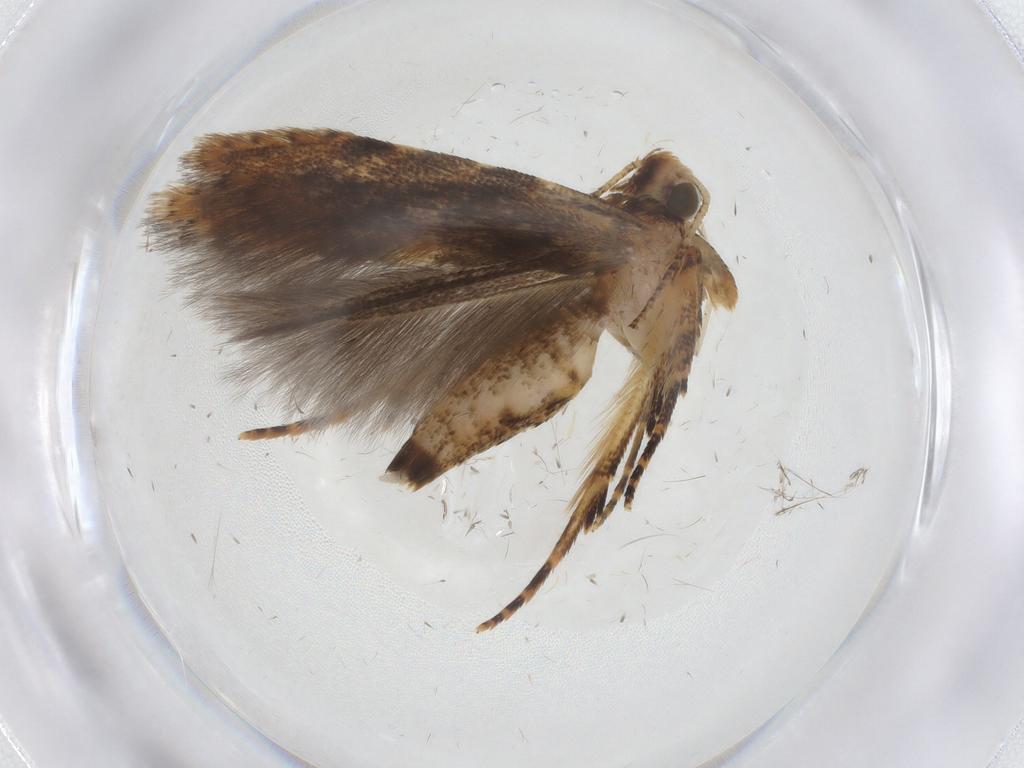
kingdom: Animalia
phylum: Arthropoda
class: Insecta
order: Lepidoptera
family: Gelechiidae
